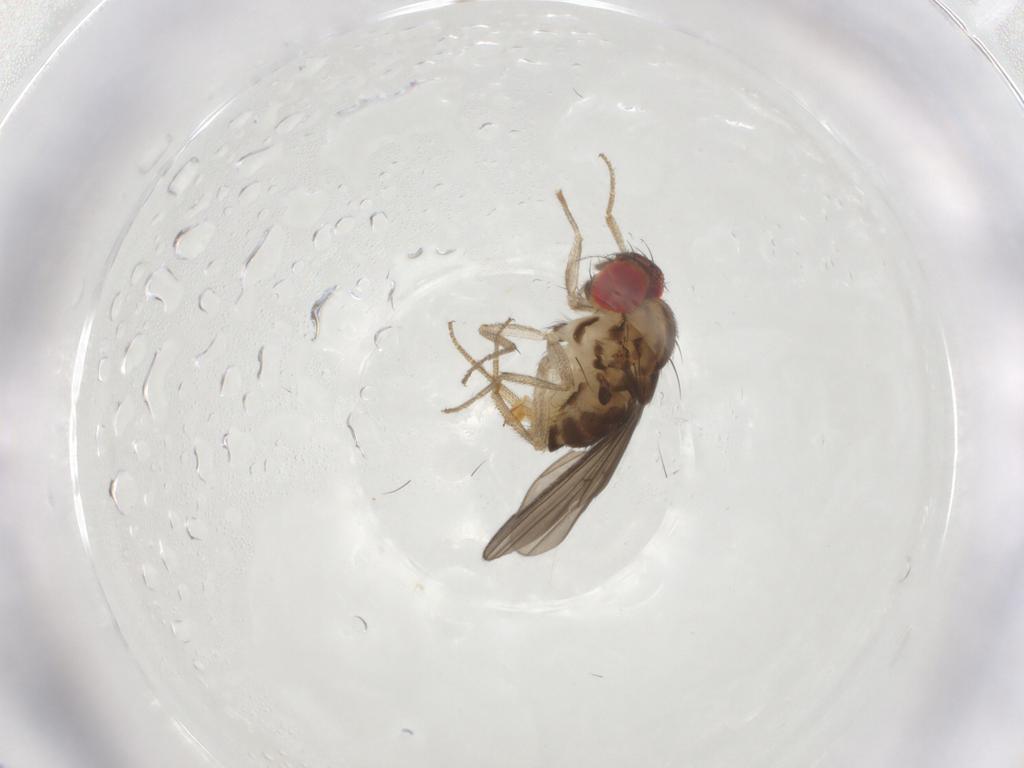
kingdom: Animalia
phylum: Arthropoda
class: Insecta
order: Diptera
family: Drosophilidae
